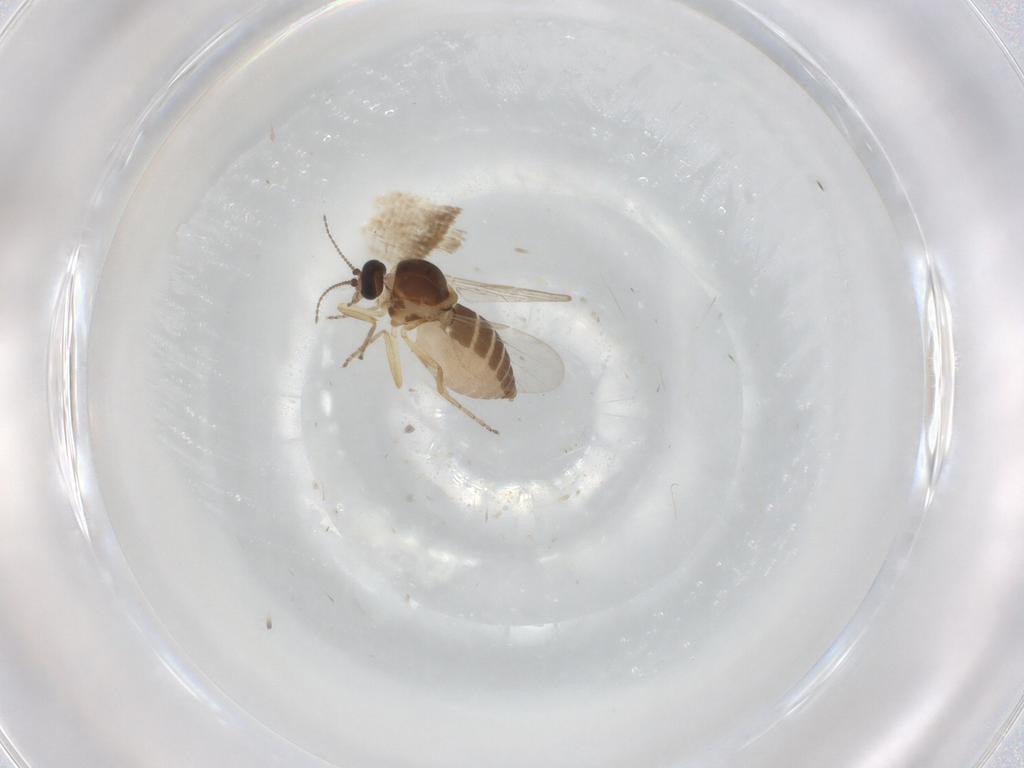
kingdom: Animalia
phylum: Arthropoda
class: Insecta
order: Diptera
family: Ceratopogonidae
